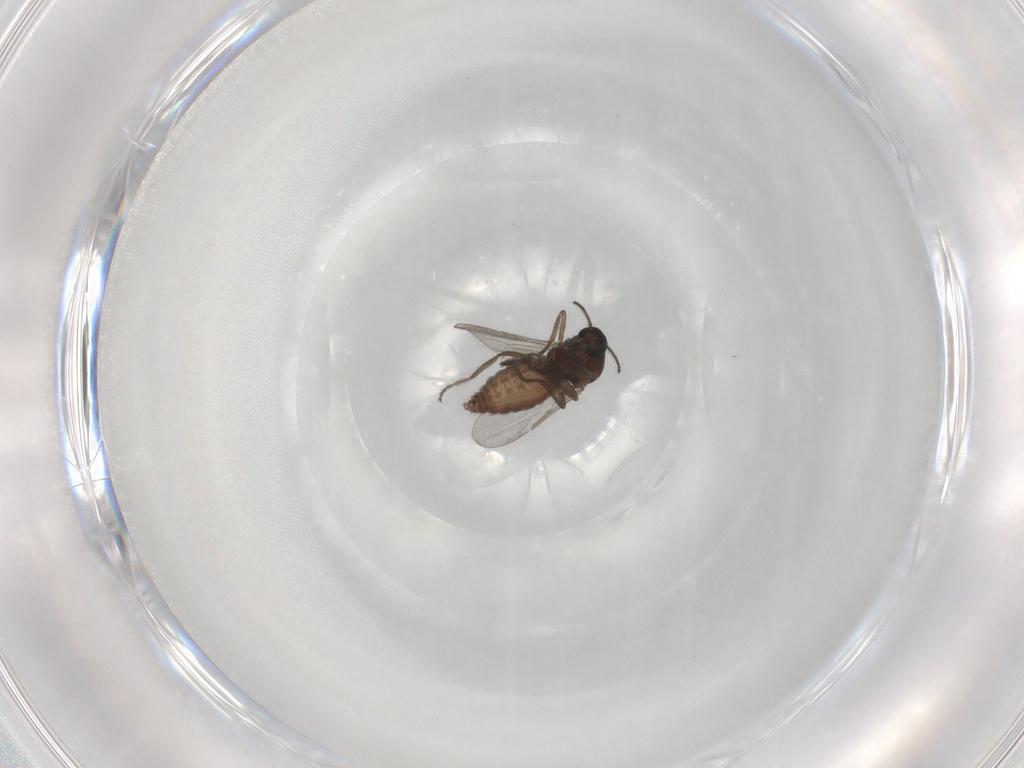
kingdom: Animalia
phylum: Arthropoda
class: Insecta
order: Diptera
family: Ceratopogonidae
